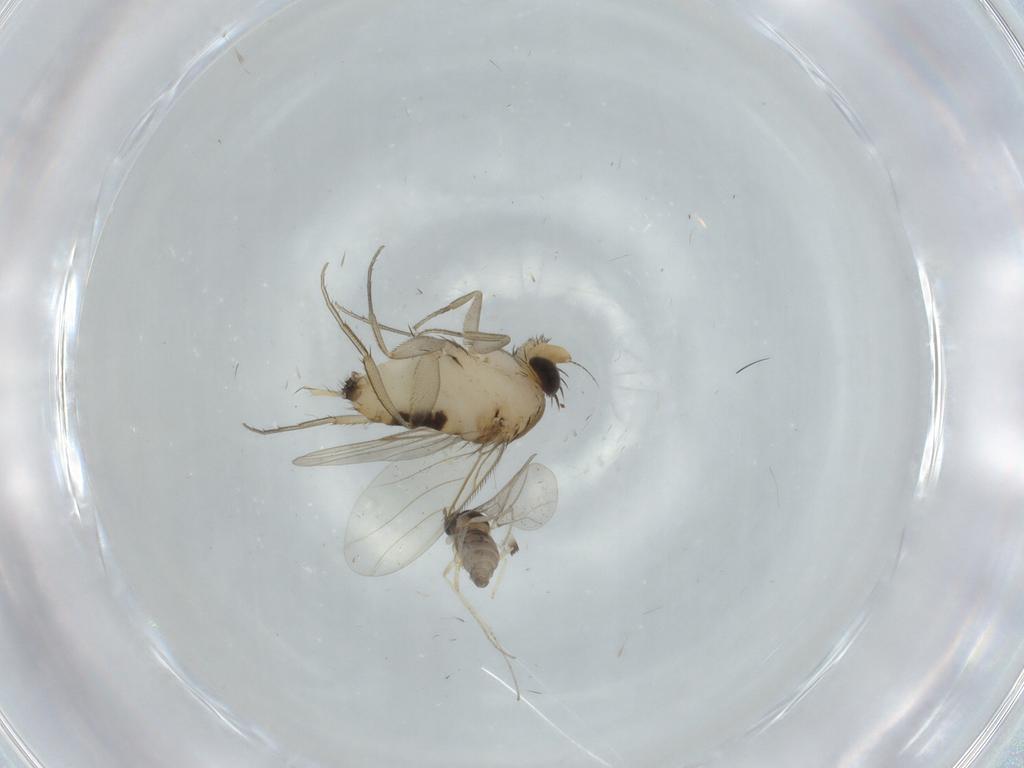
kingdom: Animalia
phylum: Arthropoda
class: Insecta
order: Diptera
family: Phoridae
